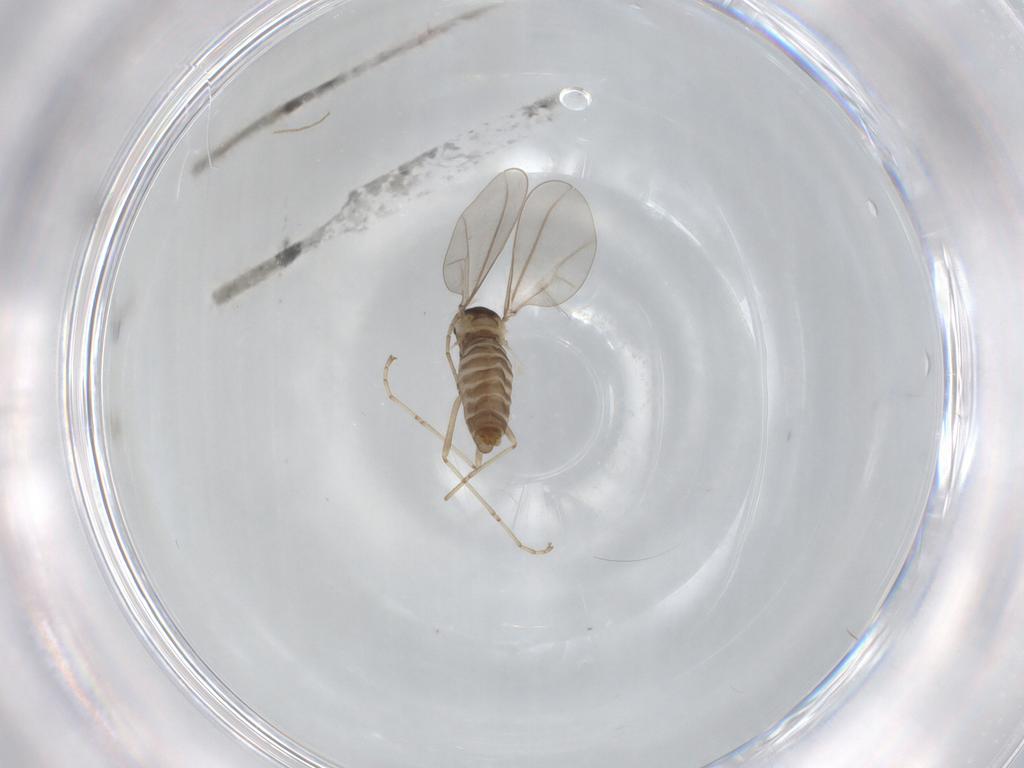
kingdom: Animalia
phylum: Arthropoda
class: Insecta
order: Diptera
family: Cecidomyiidae
